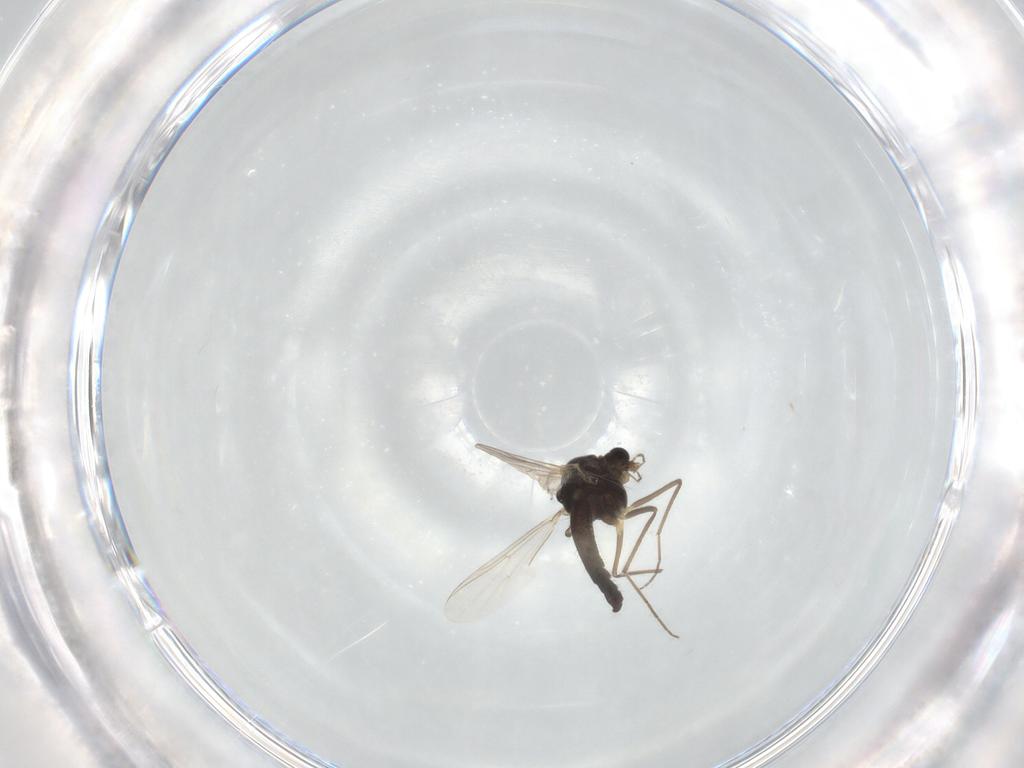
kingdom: Animalia
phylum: Arthropoda
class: Insecta
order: Diptera
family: Chironomidae
